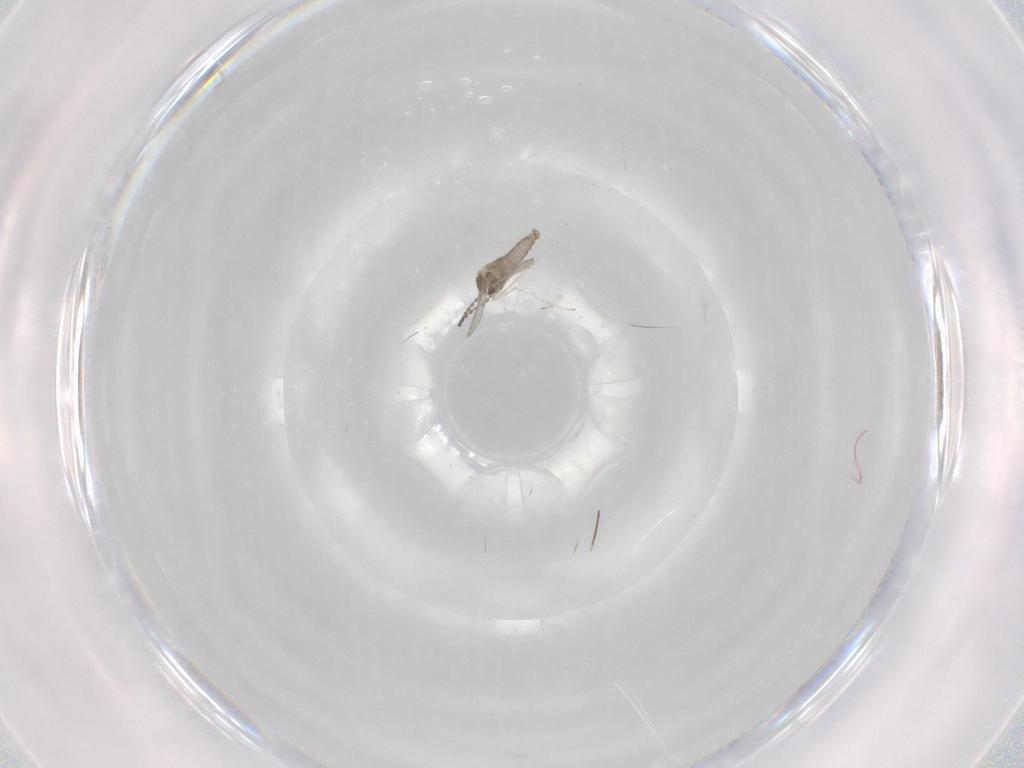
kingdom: Animalia
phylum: Arthropoda
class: Insecta
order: Diptera
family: Cecidomyiidae
